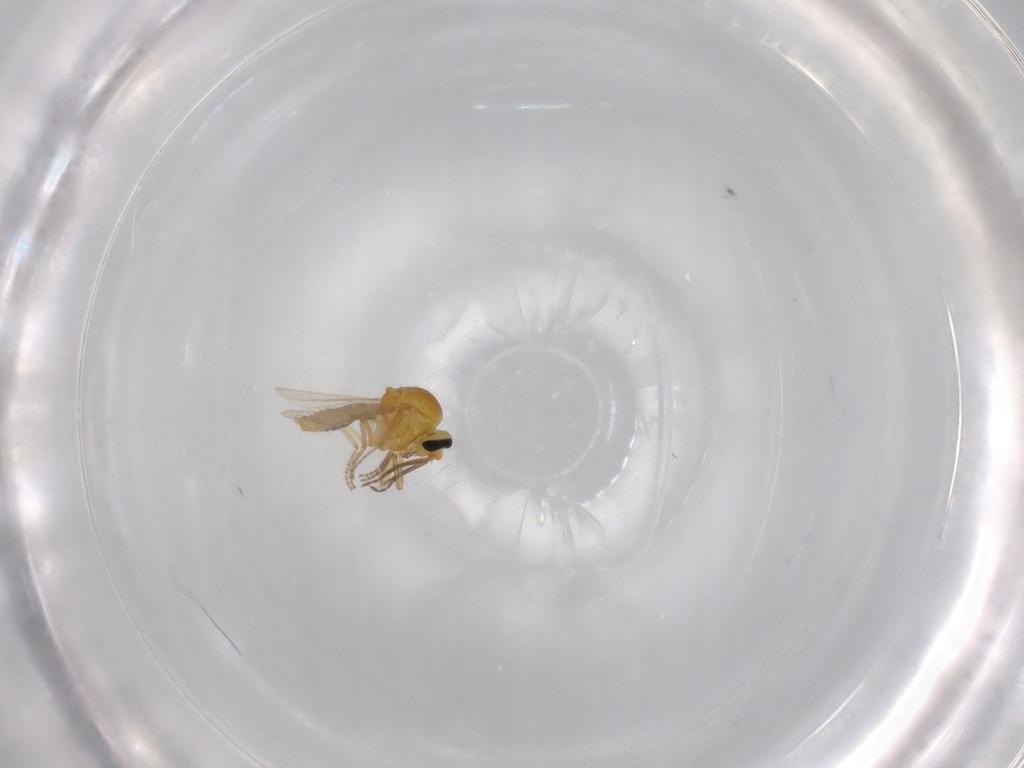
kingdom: Animalia
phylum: Arthropoda
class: Insecta
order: Diptera
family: Ceratopogonidae
